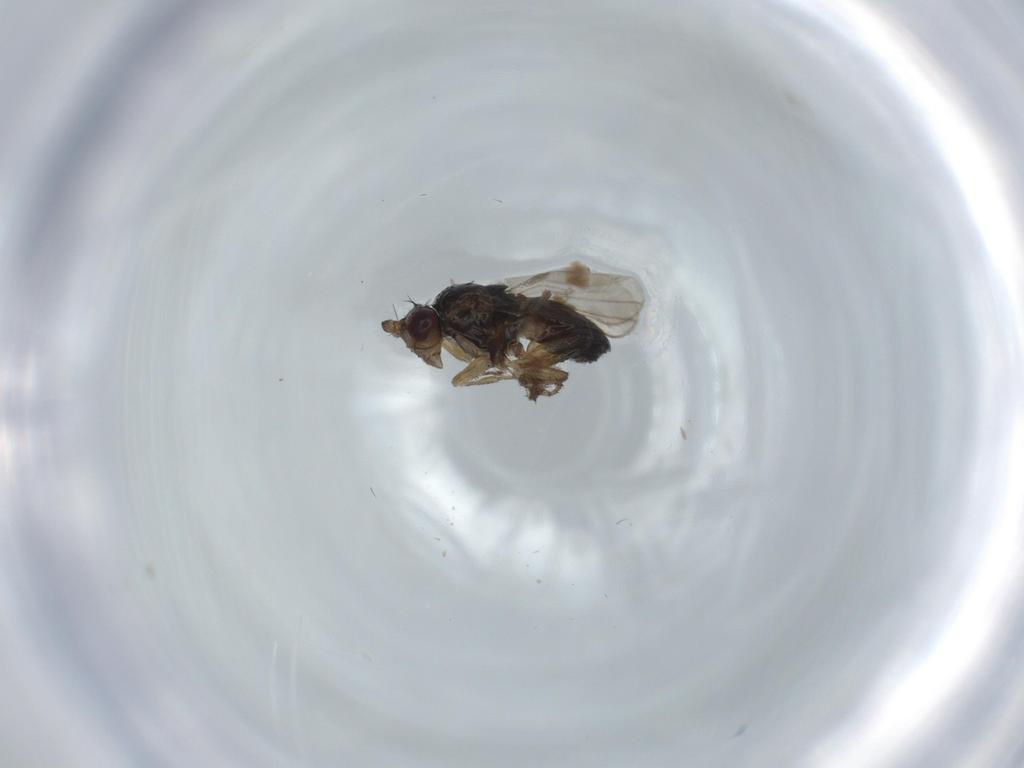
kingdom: Animalia
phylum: Arthropoda
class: Insecta
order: Diptera
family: Sphaeroceridae
